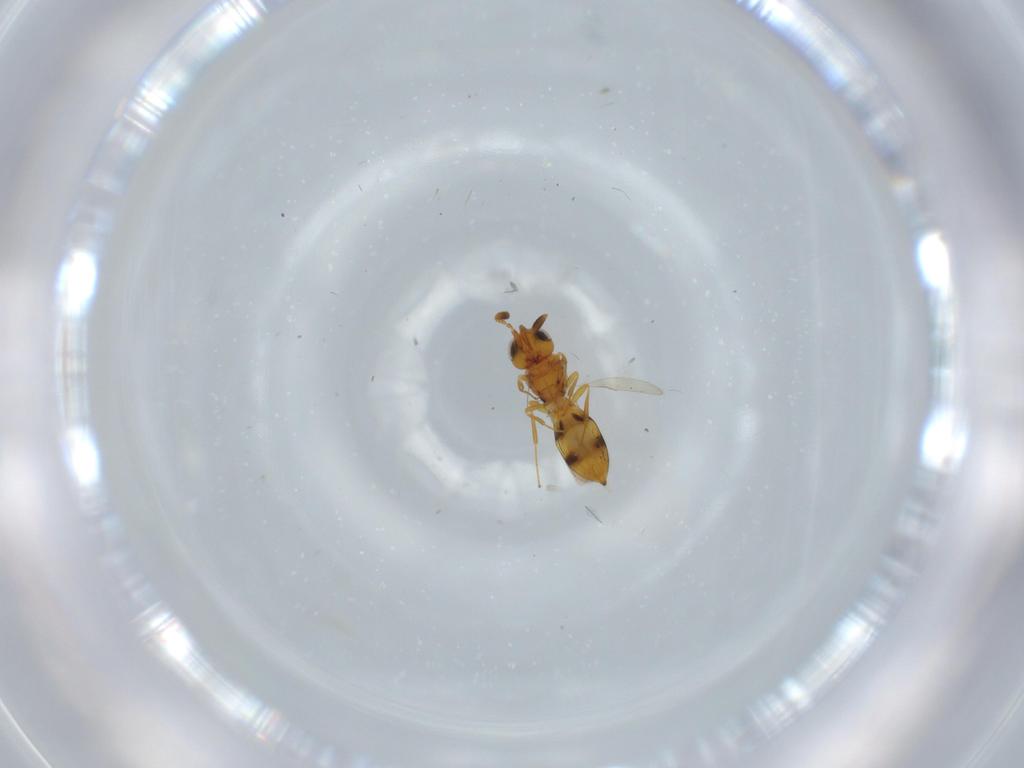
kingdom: Animalia
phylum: Arthropoda
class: Insecta
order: Hymenoptera
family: Scelionidae
